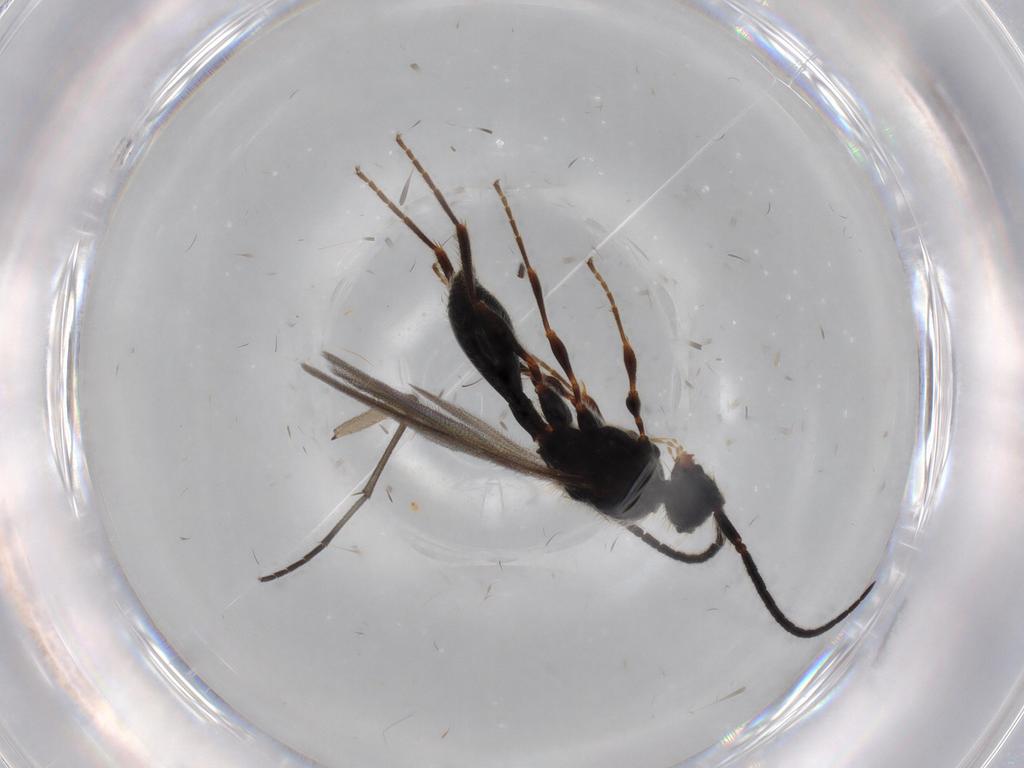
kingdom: Animalia
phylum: Arthropoda
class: Insecta
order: Hymenoptera
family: Diapriidae
